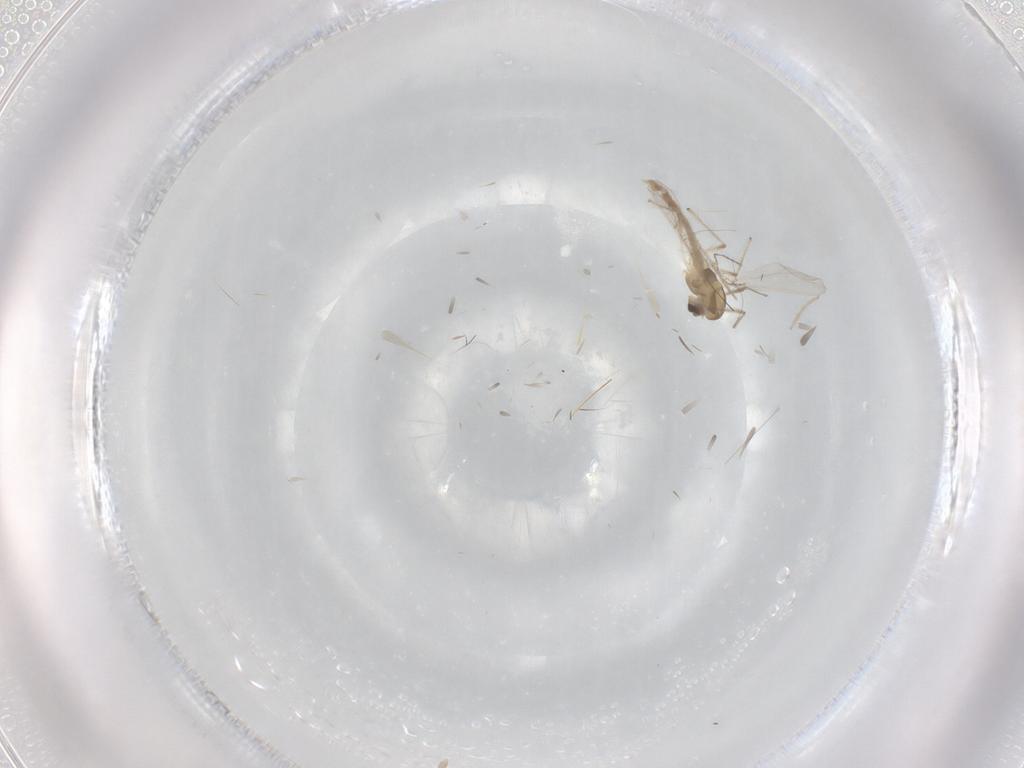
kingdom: Animalia
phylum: Arthropoda
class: Insecta
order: Diptera
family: Chironomidae
